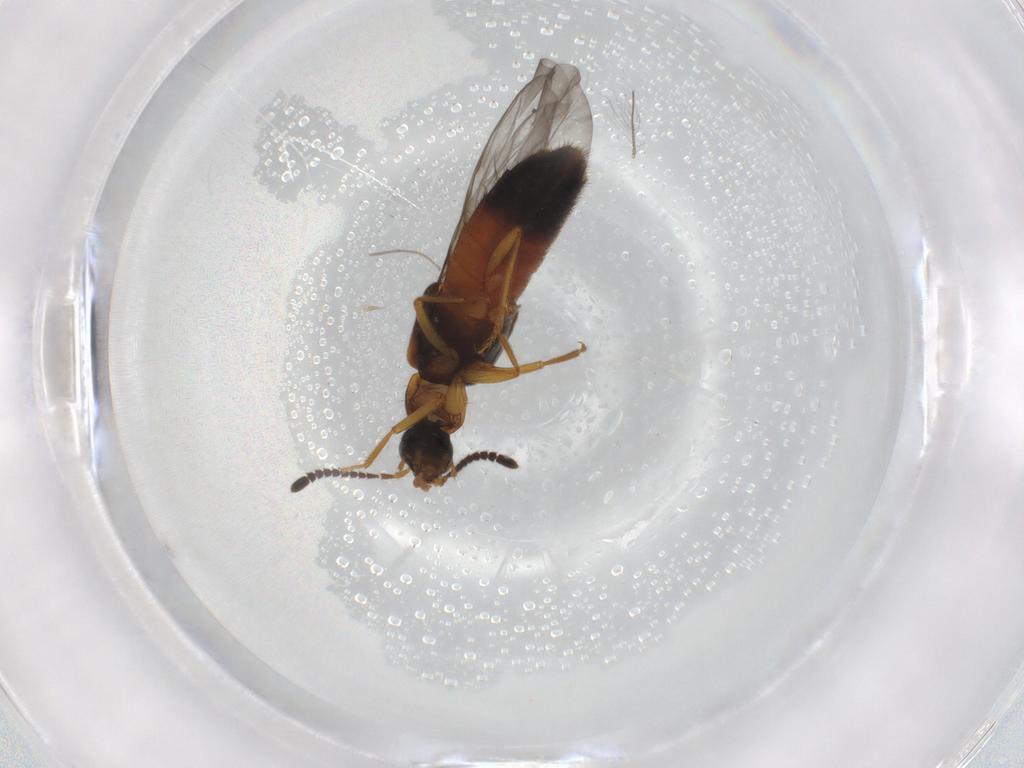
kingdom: Animalia
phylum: Arthropoda
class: Insecta
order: Coleoptera
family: Staphylinidae
